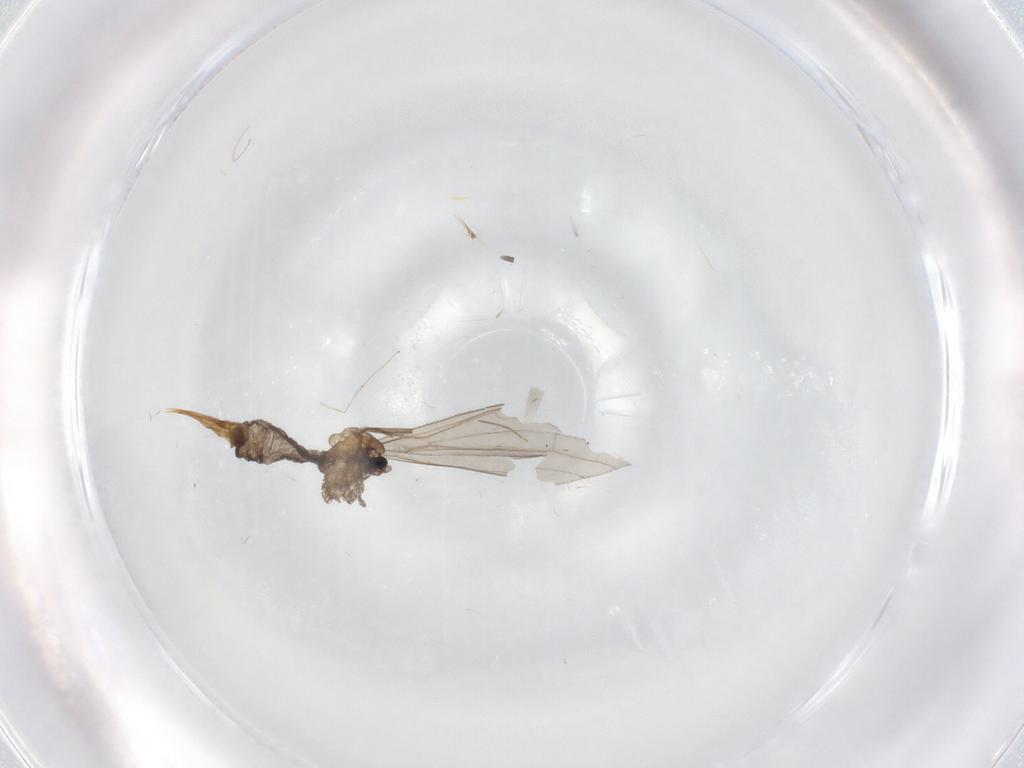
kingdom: Animalia
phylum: Arthropoda
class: Insecta
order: Diptera
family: Limoniidae
